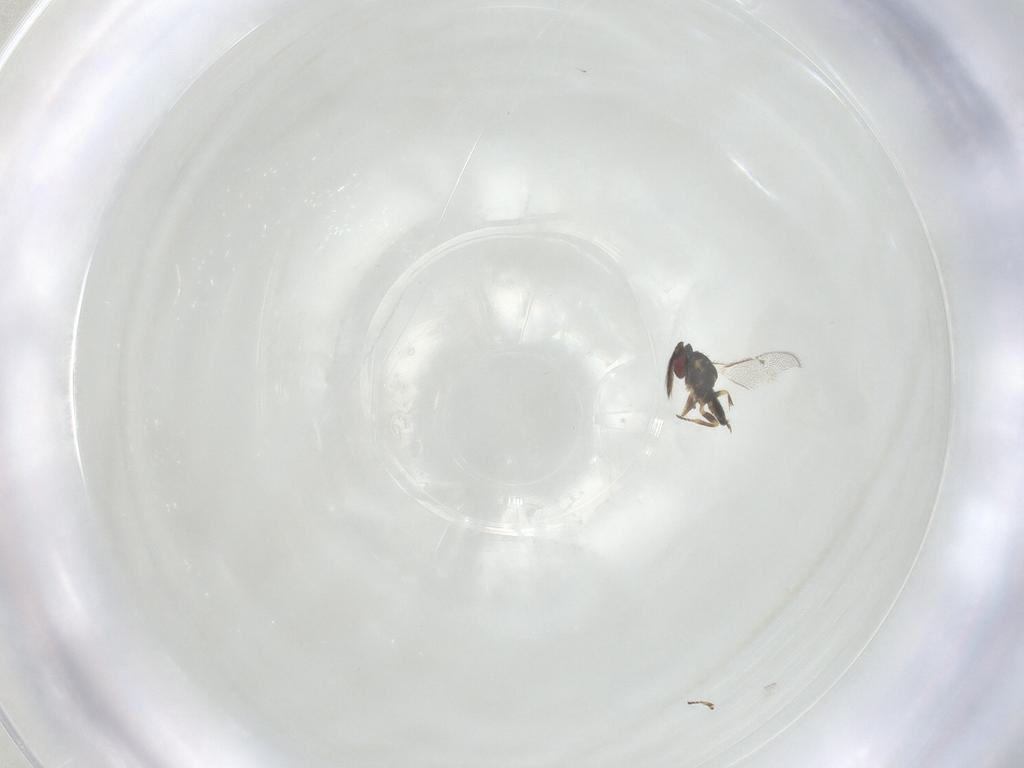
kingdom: Animalia
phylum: Arthropoda
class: Insecta
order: Hymenoptera
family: Eulophidae
